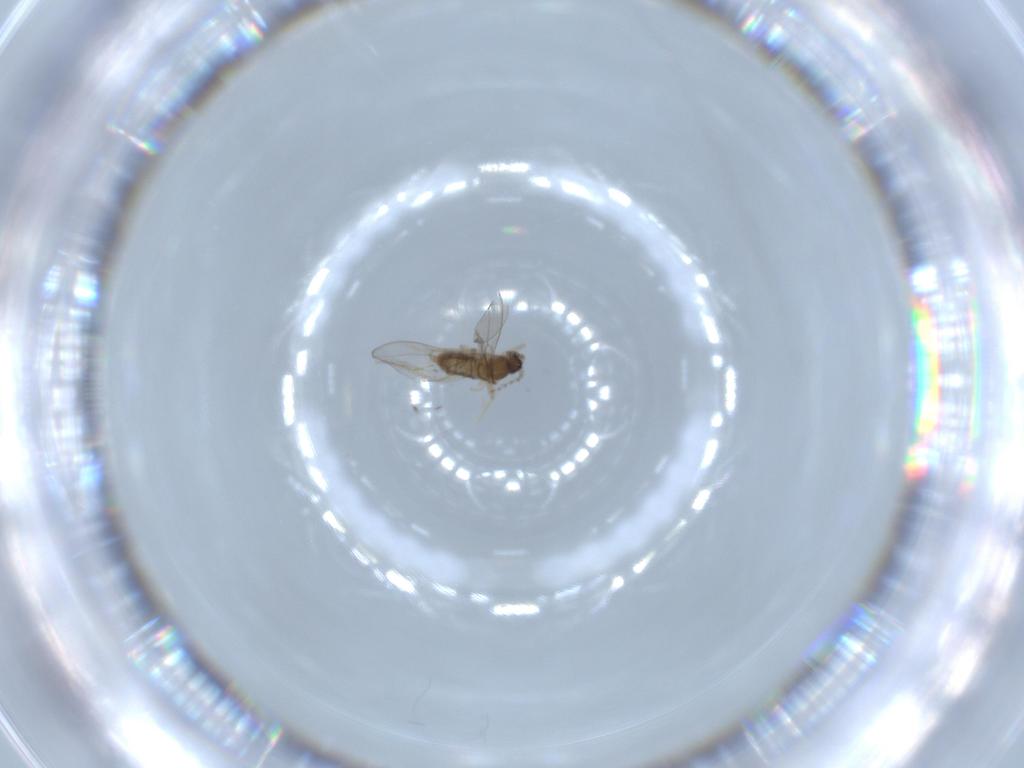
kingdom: Animalia
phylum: Arthropoda
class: Insecta
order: Diptera
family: Cecidomyiidae
